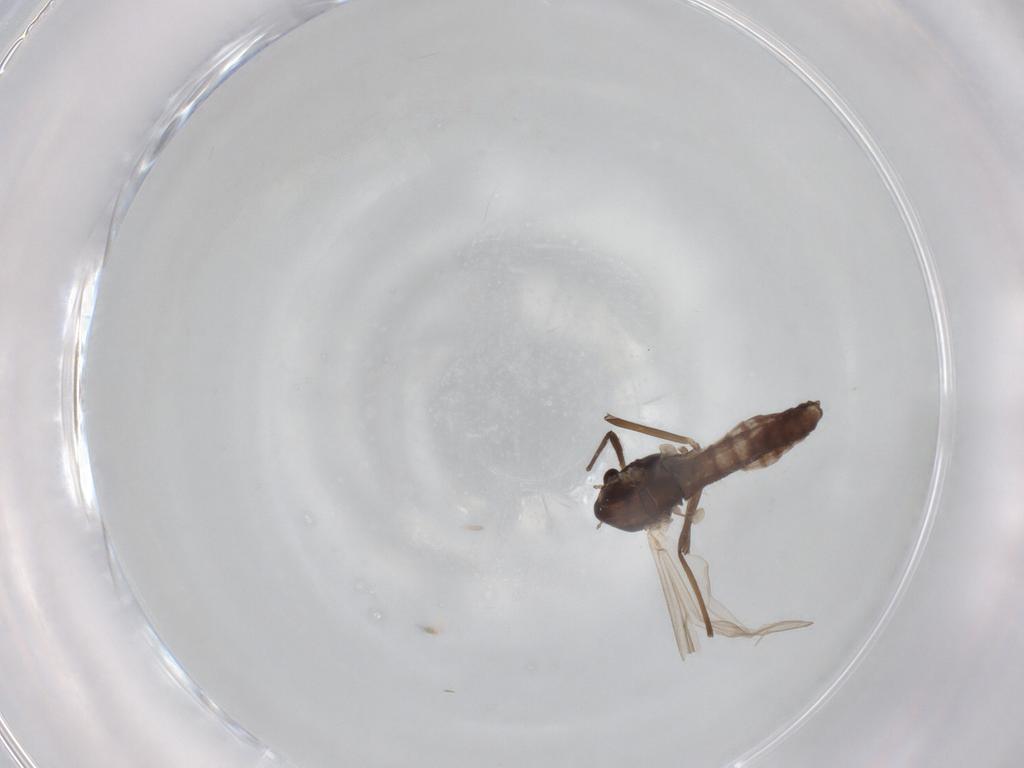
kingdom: Animalia
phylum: Arthropoda
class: Insecta
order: Diptera
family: Chironomidae
